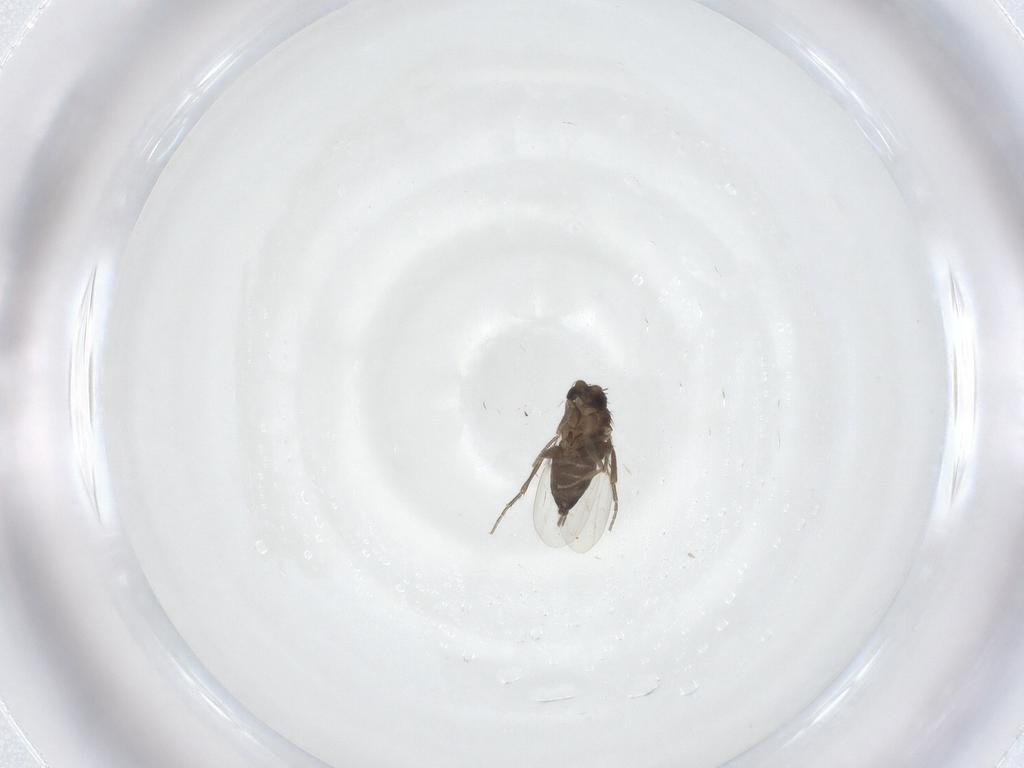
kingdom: Animalia
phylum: Arthropoda
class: Insecta
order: Diptera
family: Phoridae
